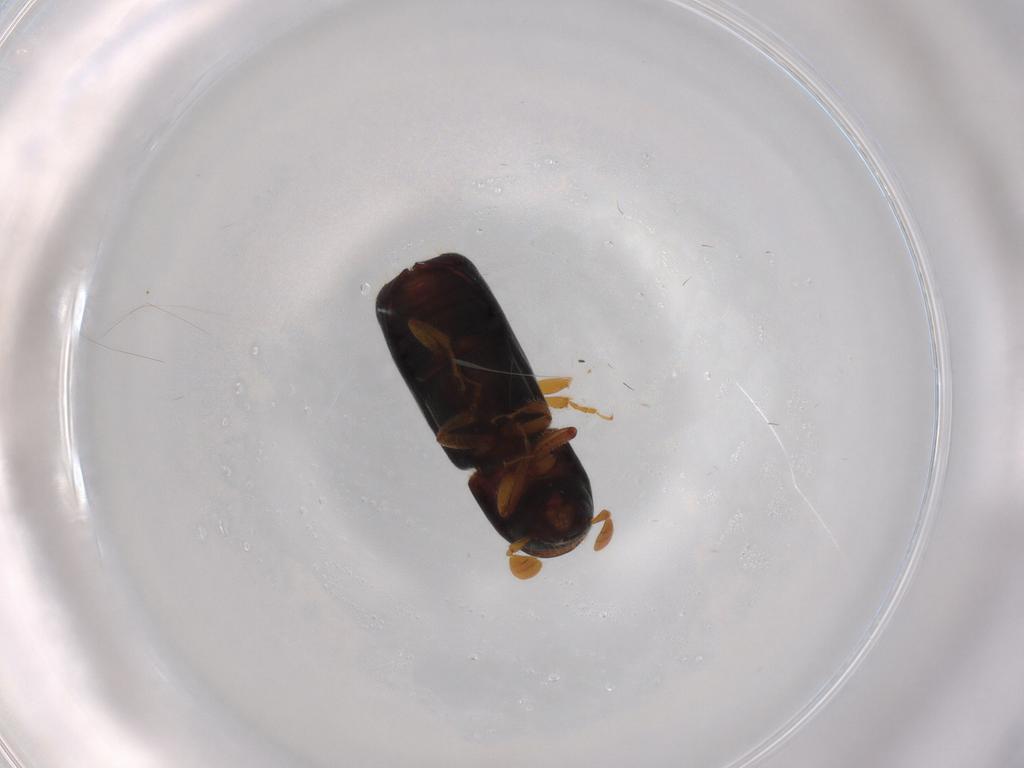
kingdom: Animalia
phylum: Arthropoda
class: Insecta
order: Coleoptera
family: Curculionidae
